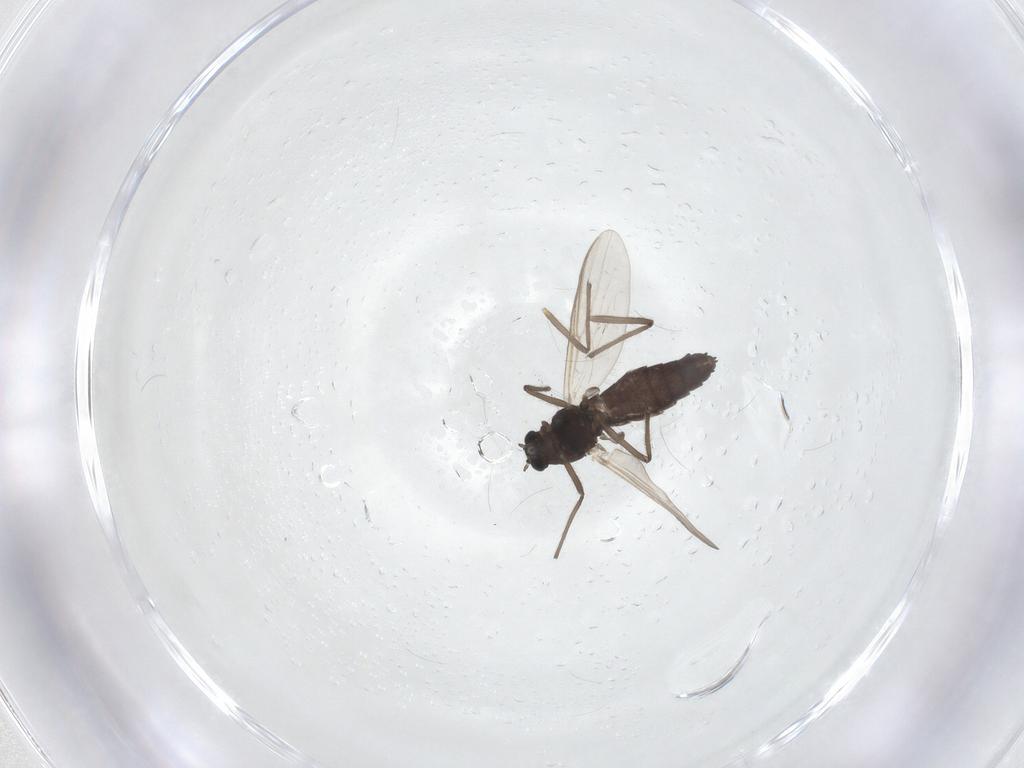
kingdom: Animalia
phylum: Arthropoda
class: Insecta
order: Diptera
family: Chironomidae
